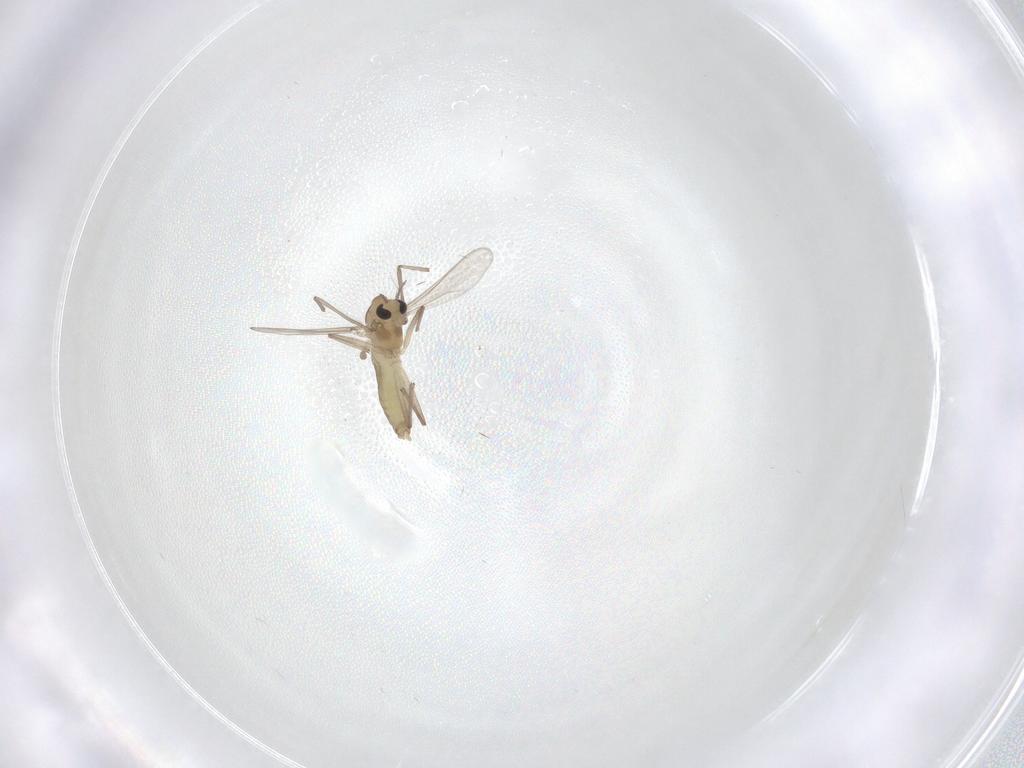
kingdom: Animalia
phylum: Arthropoda
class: Insecta
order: Diptera
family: Chironomidae
